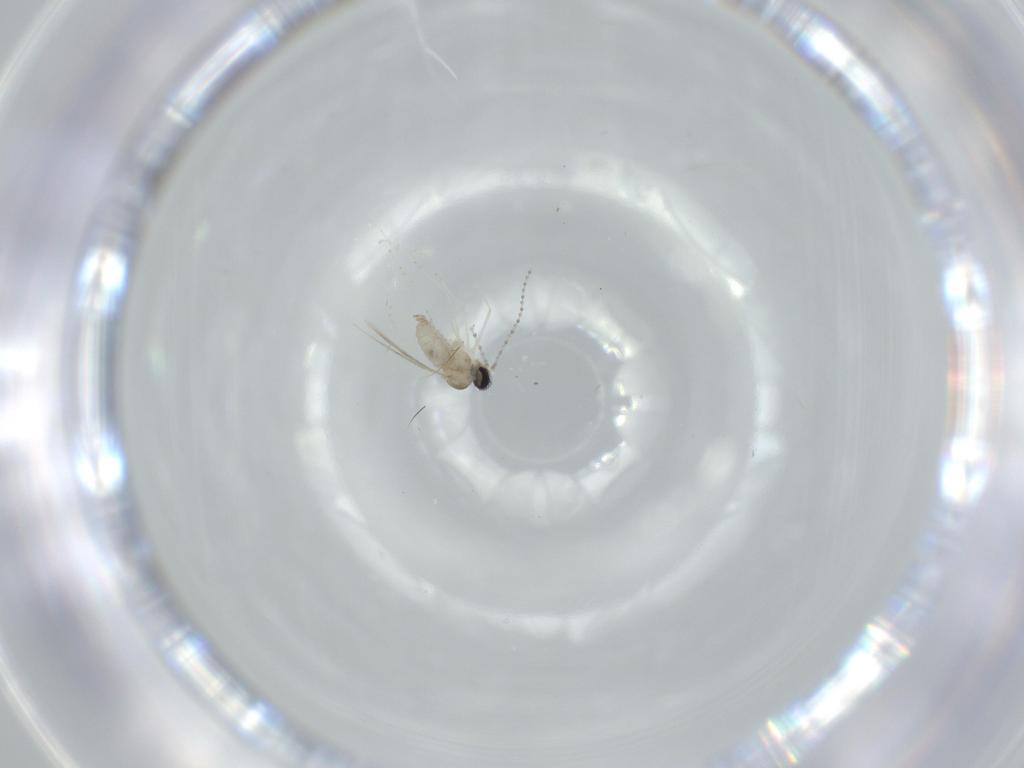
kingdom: Animalia
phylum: Arthropoda
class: Insecta
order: Diptera
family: Cecidomyiidae
